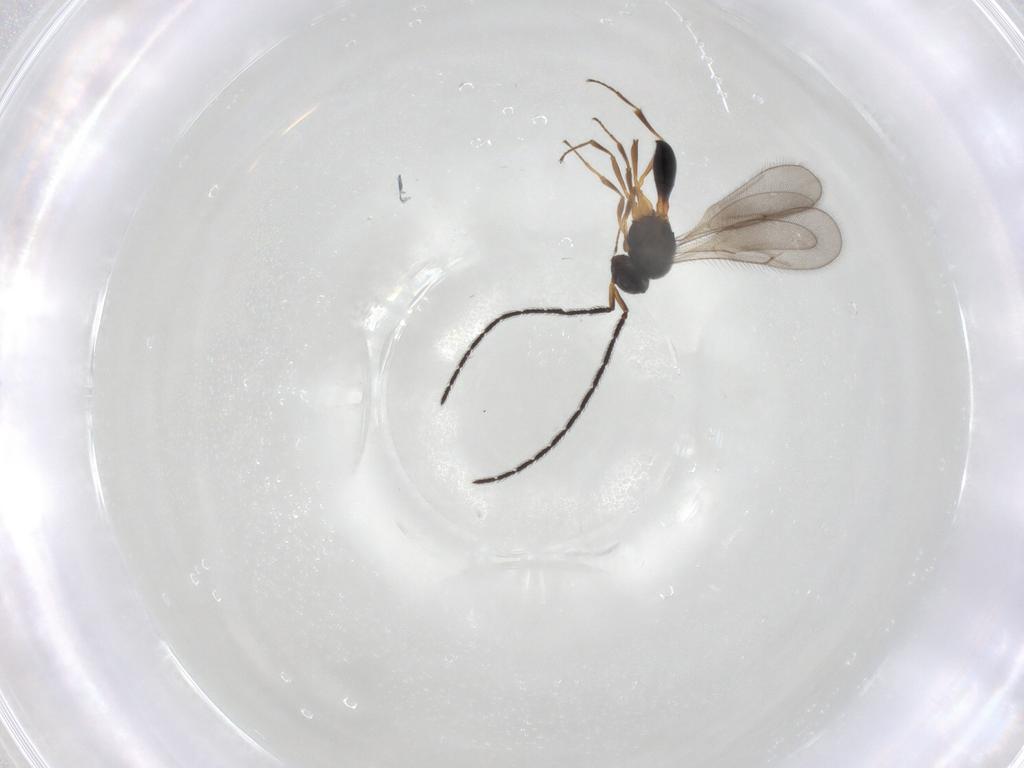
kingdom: Animalia
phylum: Arthropoda
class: Insecta
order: Hymenoptera
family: Scelionidae
